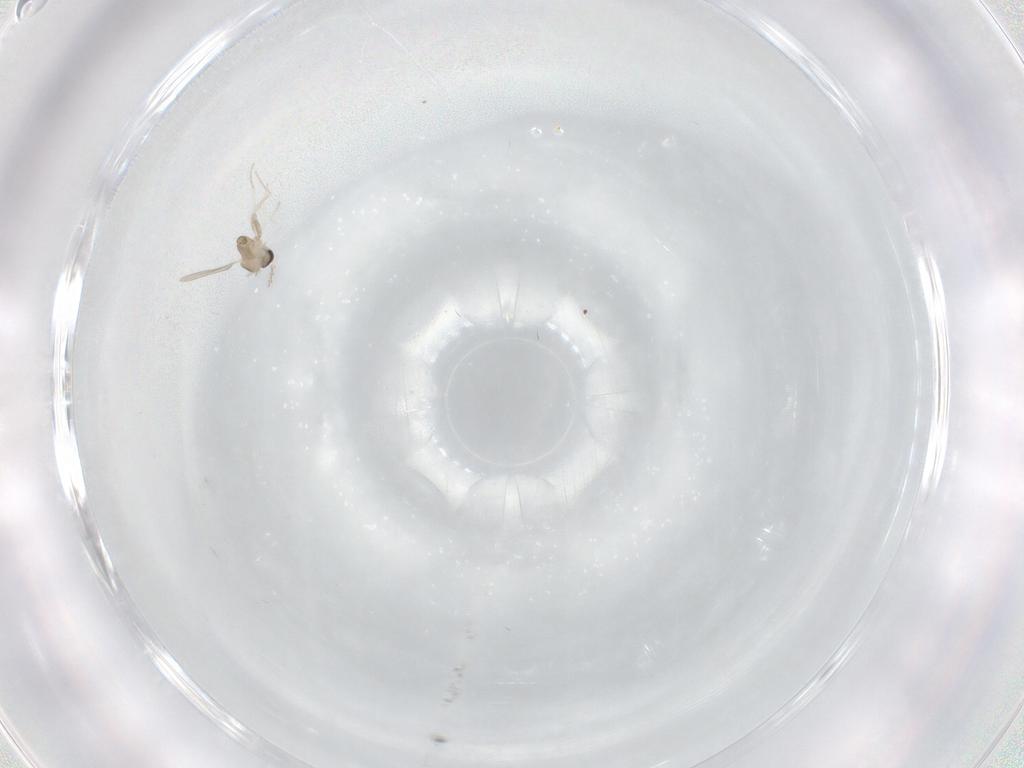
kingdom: Animalia
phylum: Arthropoda
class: Insecta
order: Diptera
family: Cecidomyiidae
